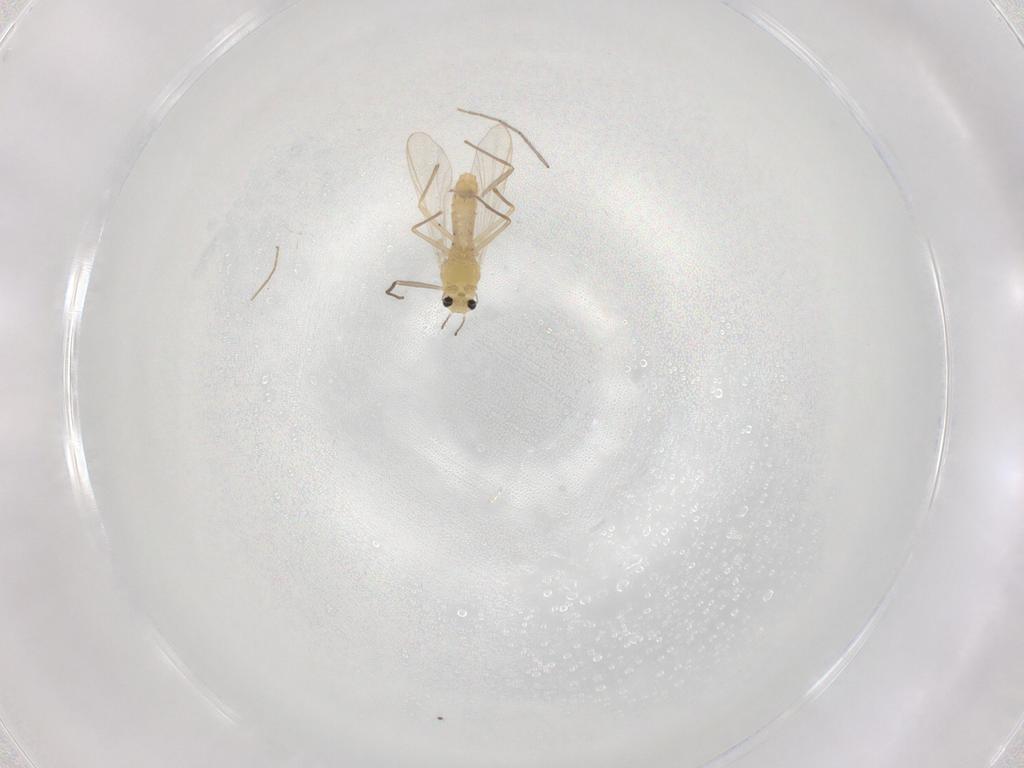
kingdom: Animalia
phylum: Arthropoda
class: Insecta
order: Diptera
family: Chironomidae
